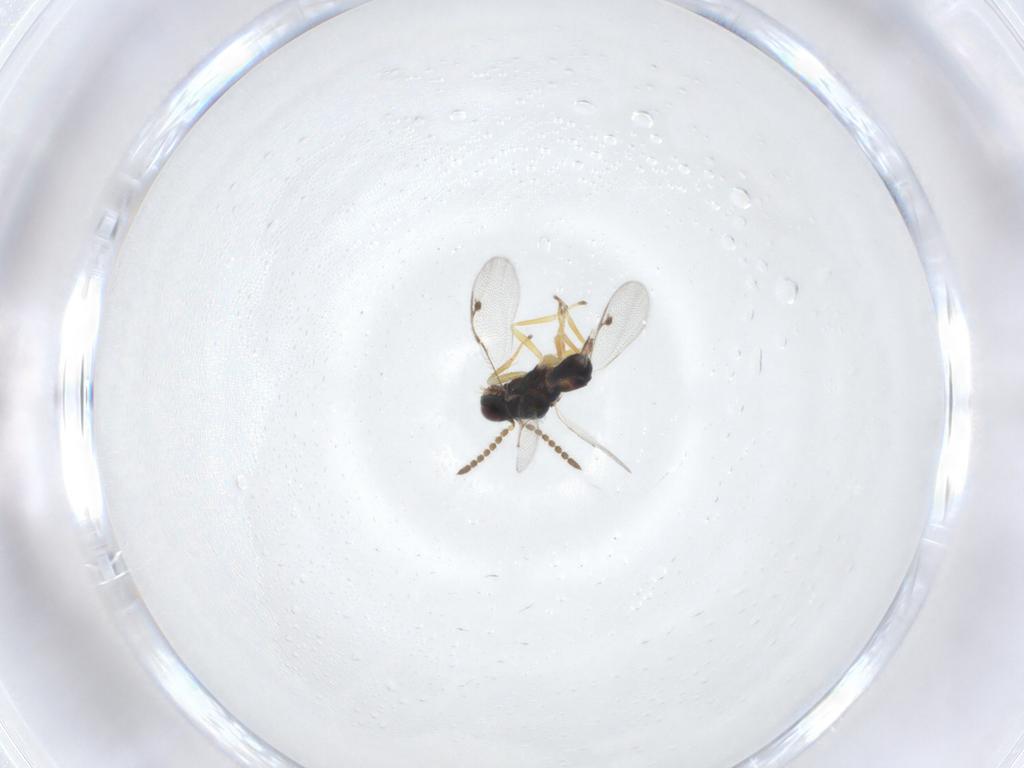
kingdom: Animalia
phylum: Arthropoda
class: Insecta
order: Hymenoptera
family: Pirenidae
